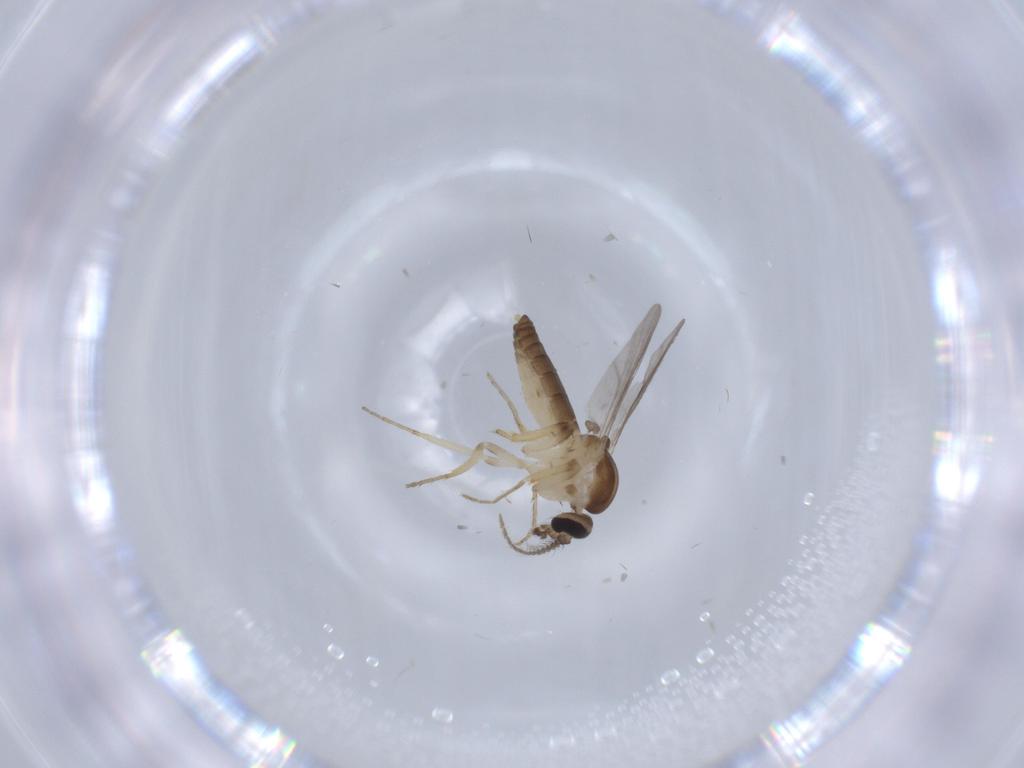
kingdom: Animalia
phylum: Arthropoda
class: Insecta
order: Diptera
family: Ceratopogonidae
